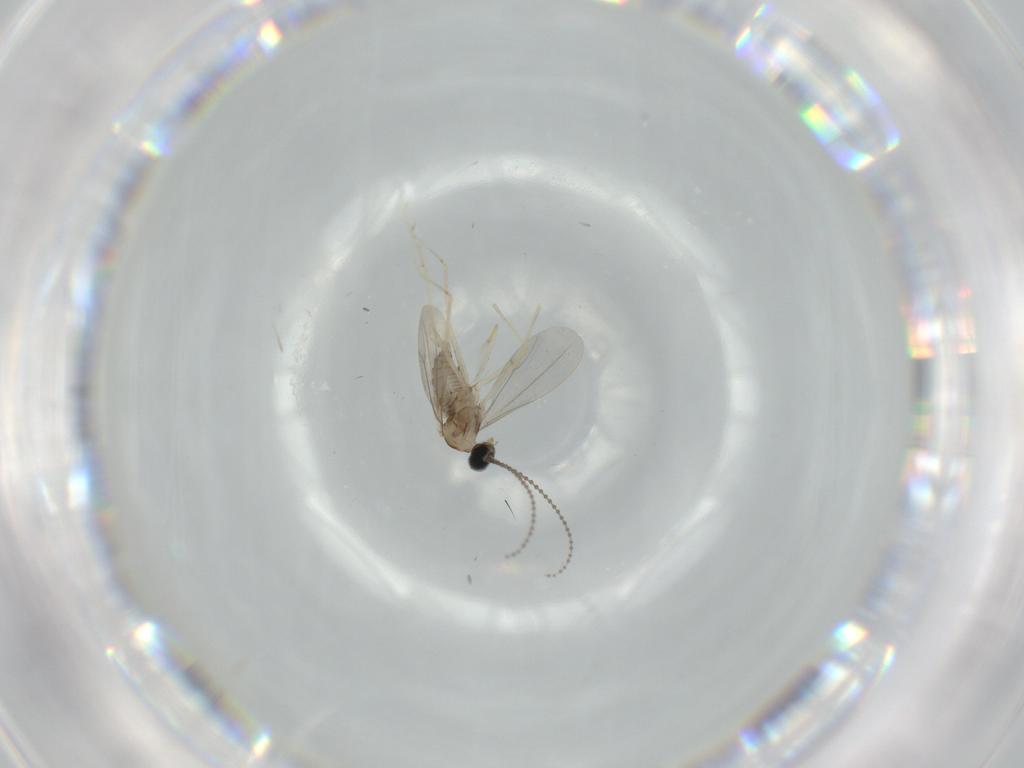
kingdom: Animalia
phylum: Arthropoda
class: Insecta
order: Diptera
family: Cecidomyiidae
